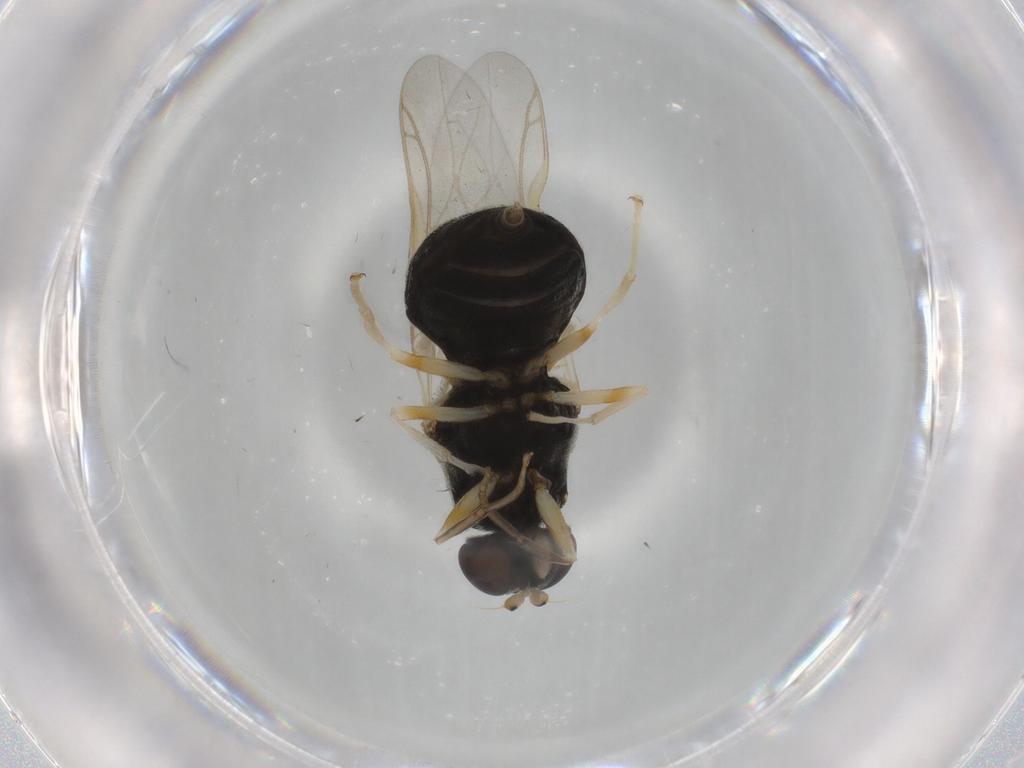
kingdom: Animalia
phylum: Arthropoda
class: Insecta
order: Diptera
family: Stratiomyidae
